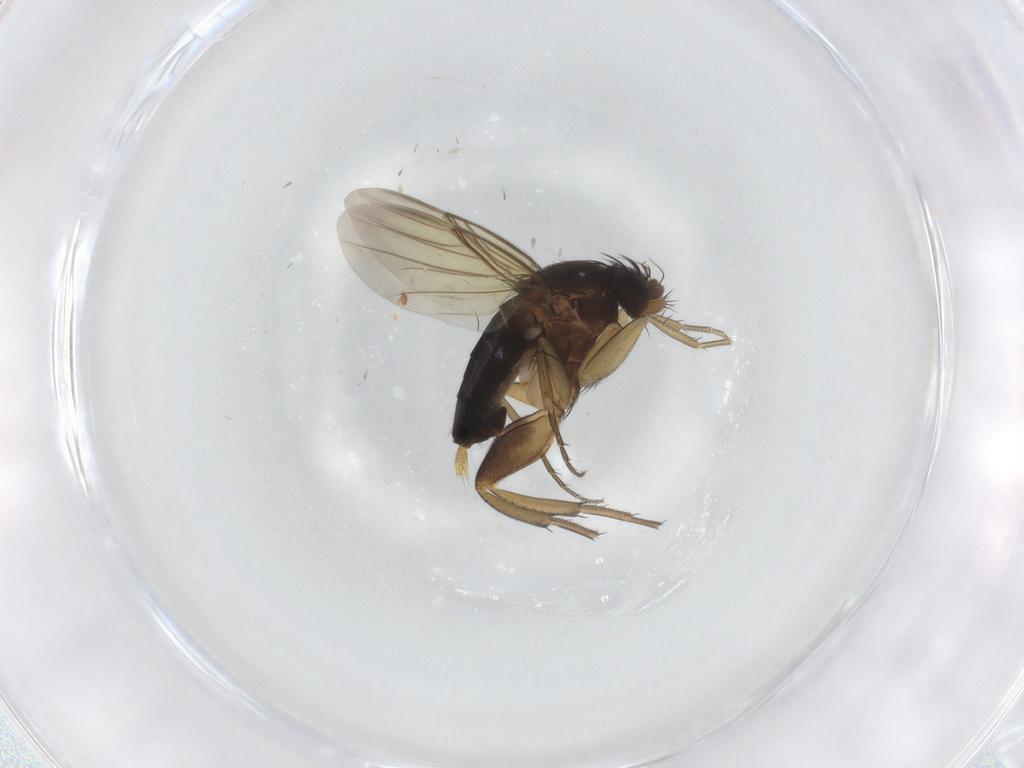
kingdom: Animalia
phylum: Arthropoda
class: Insecta
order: Diptera
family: Phoridae
